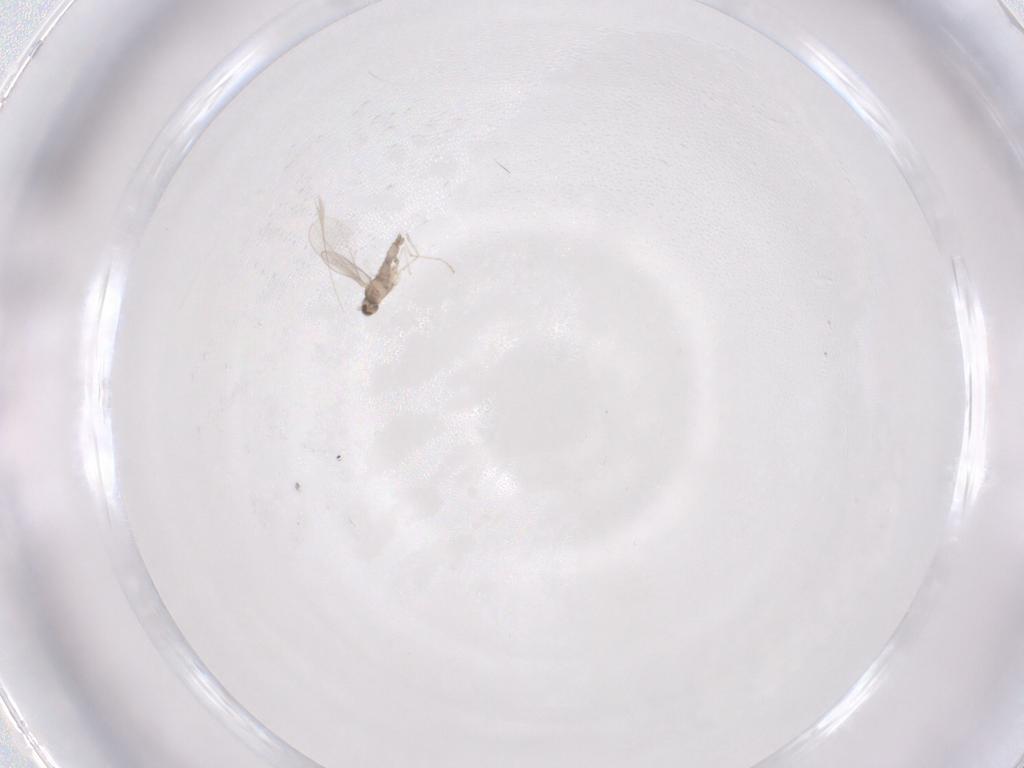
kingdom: Animalia
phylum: Arthropoda
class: Insecta
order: Diptera
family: Cecidomyiidae
